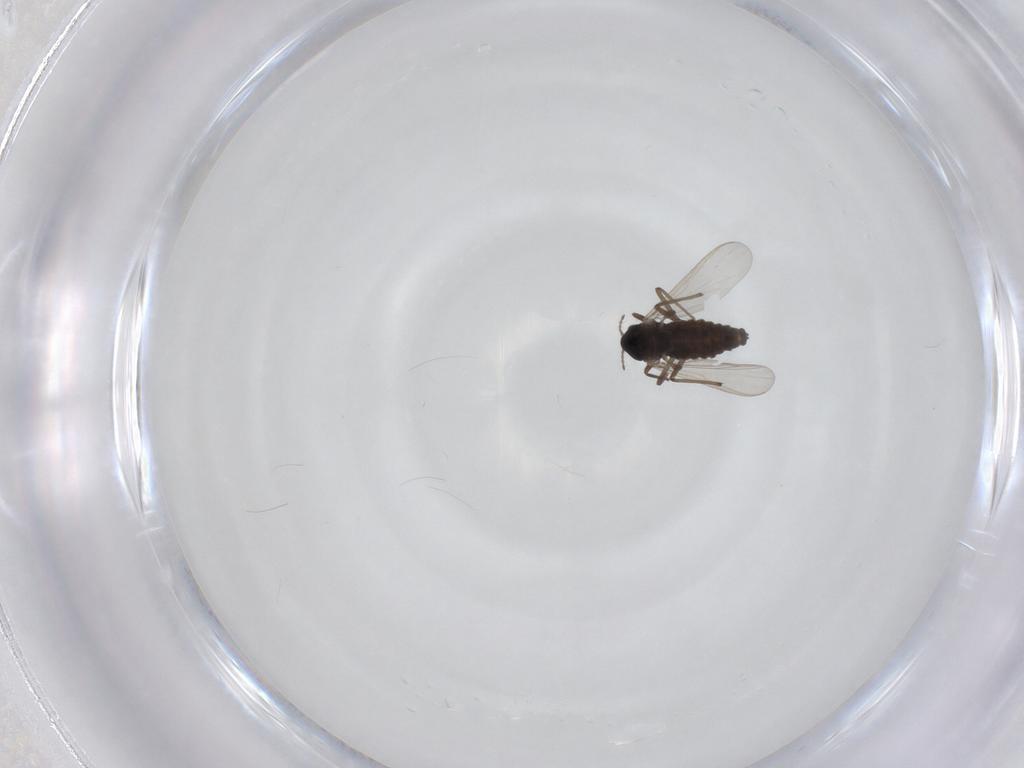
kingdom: Animalia
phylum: Arthropoda
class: Insecta
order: Diptera
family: Chironomidae
